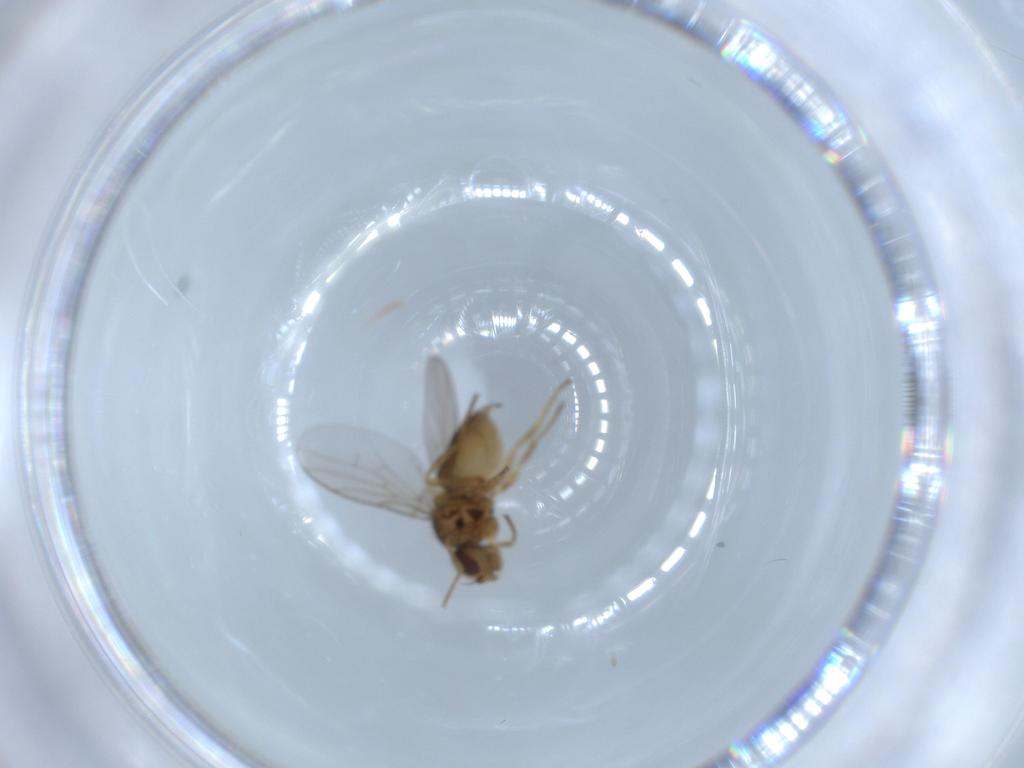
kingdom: Animalia
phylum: Arthropoda
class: Insecta
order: Diptera
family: Chloropidae
